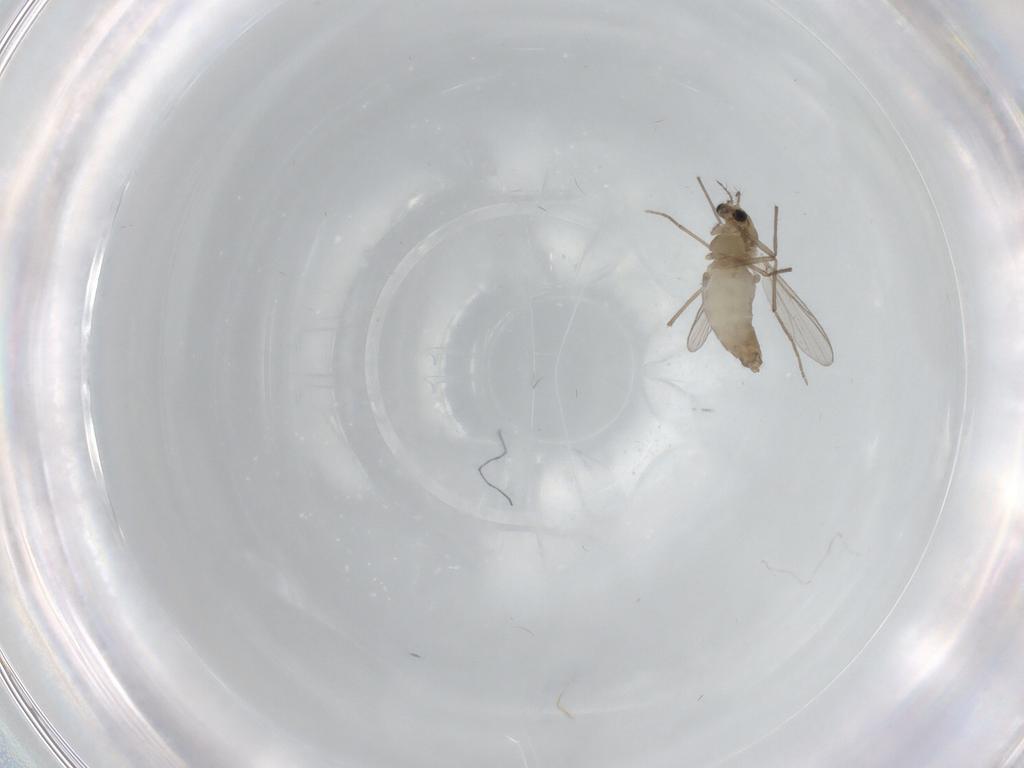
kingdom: Animalia
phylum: Arthropoda
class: Insecta
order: Diptera
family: Chironomidae
